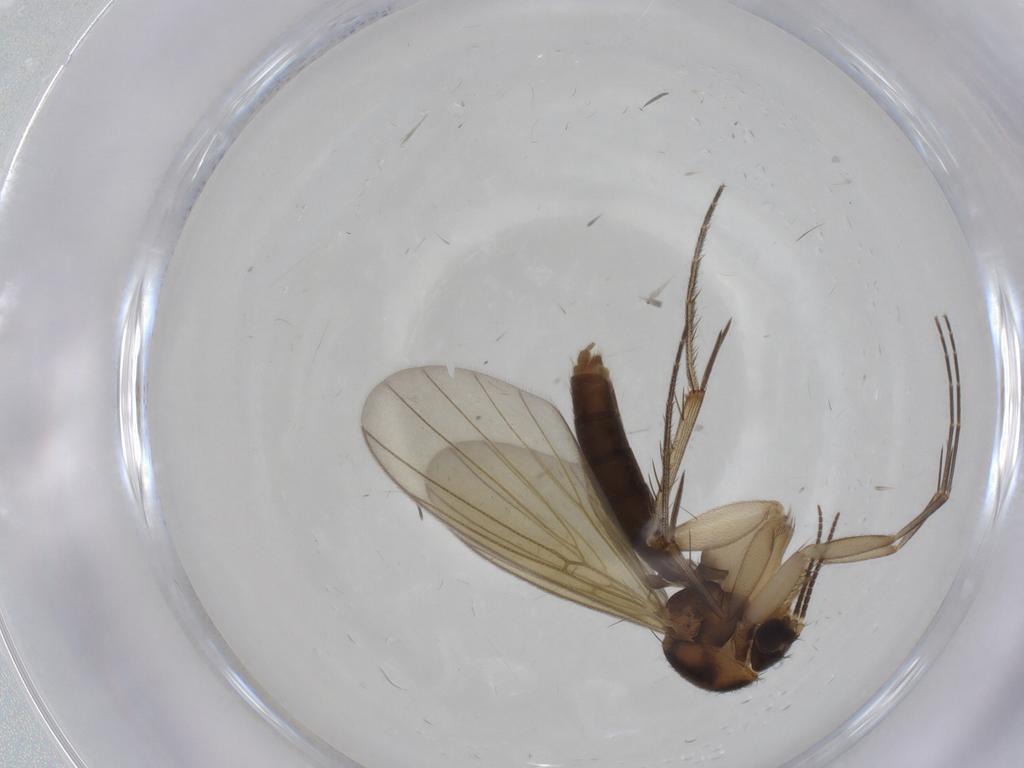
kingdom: Animalia
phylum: Arthropoda
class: Insecta
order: Diptera
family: Mycetophilidae
